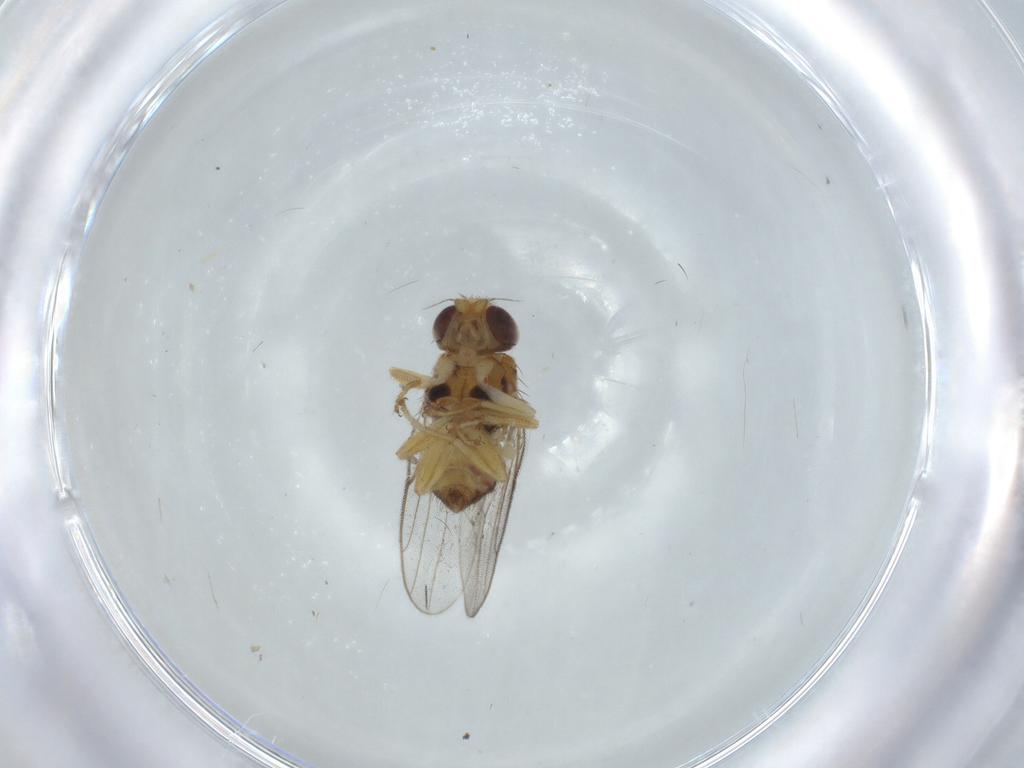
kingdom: Animalia
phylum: Arthropoda
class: Insecta
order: Diptera
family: Chloropidae
